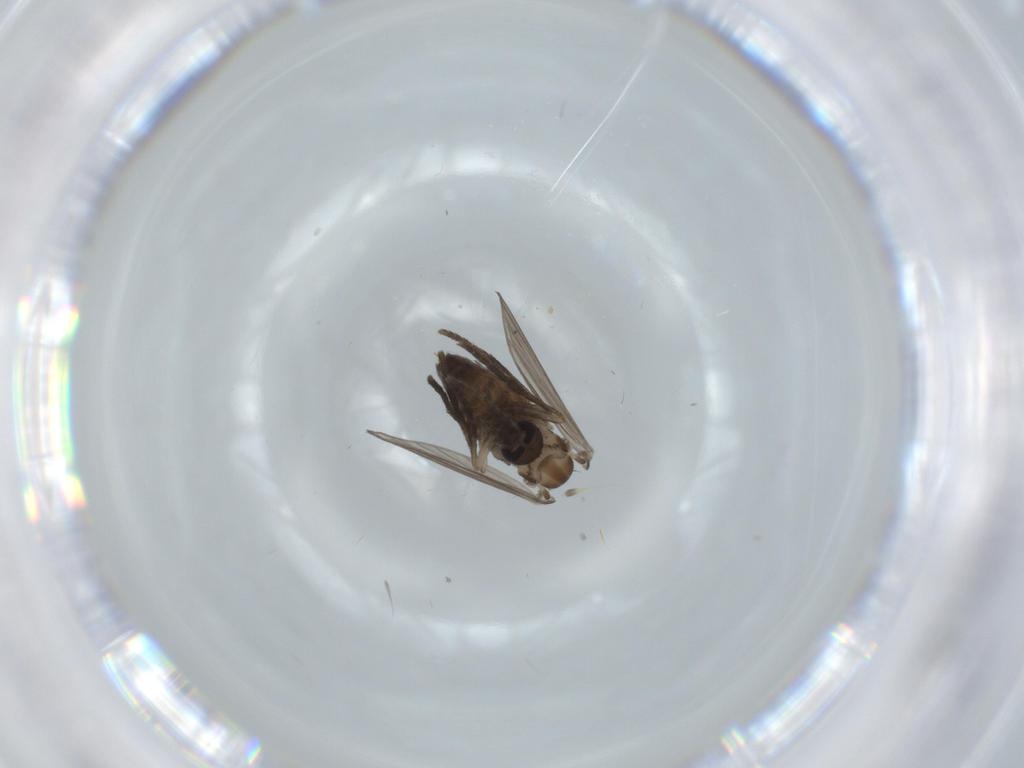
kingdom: Animalia
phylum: Arthropoda
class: Insecta
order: Diptera
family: Psychodidae
